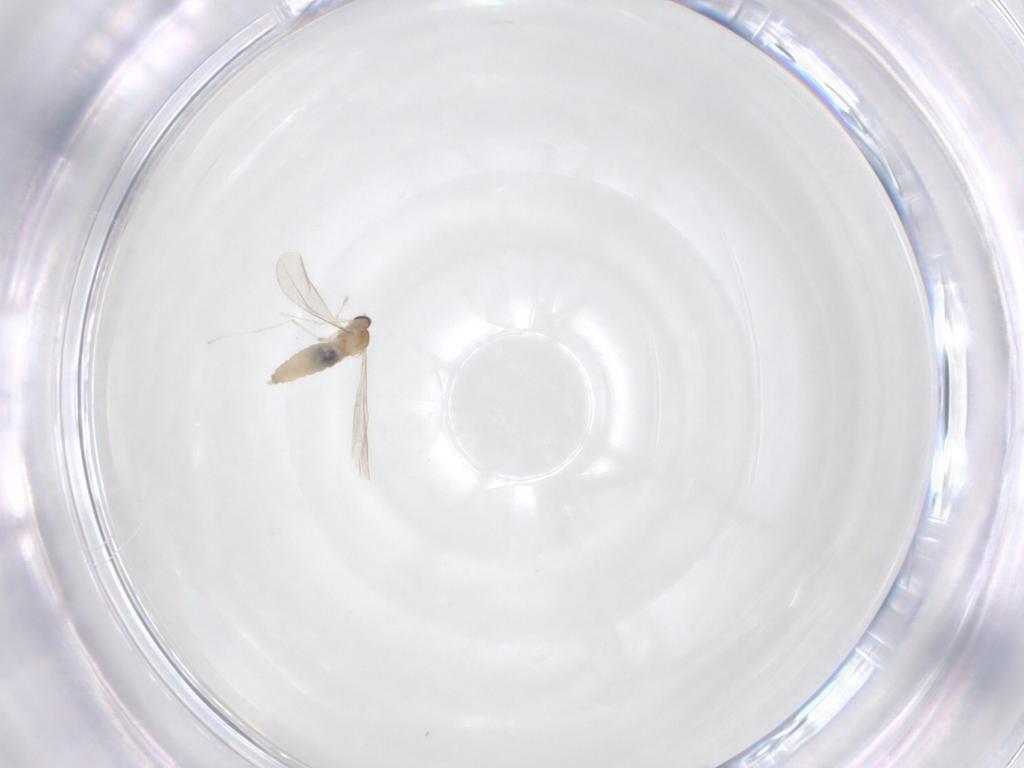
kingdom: Animalia
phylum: Arthropoda
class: Insecta
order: Diptera
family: Cecidomyiidae
